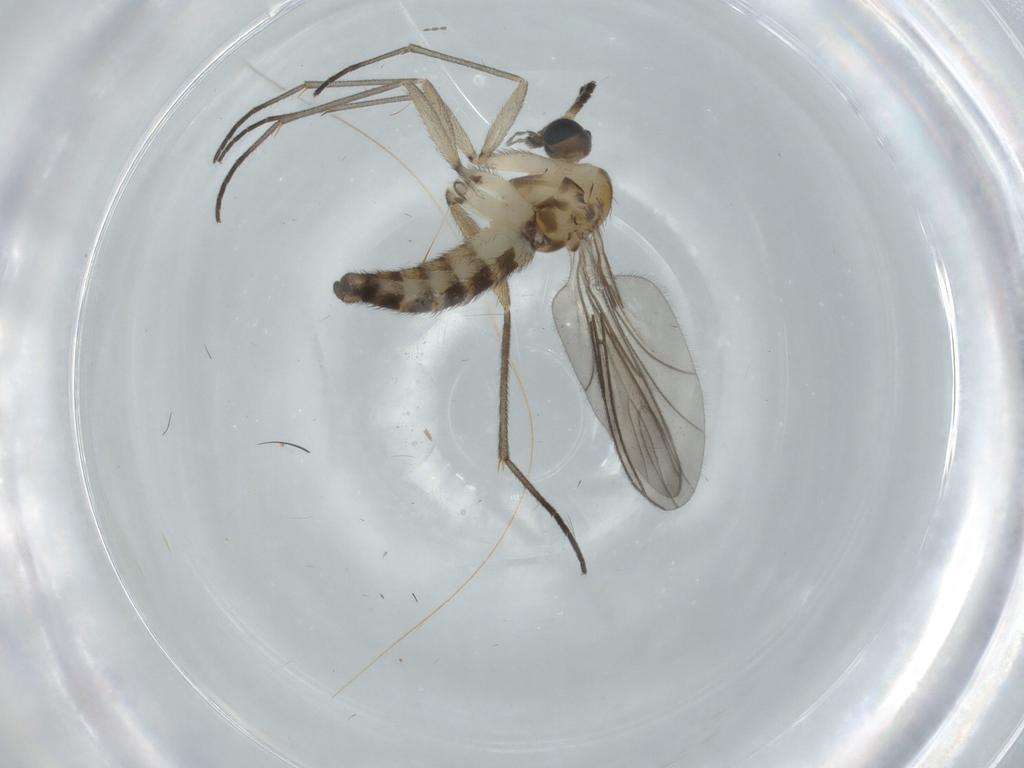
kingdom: Animalia
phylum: Arthropoda
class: Insecta
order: Diptera
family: Sciaridae
